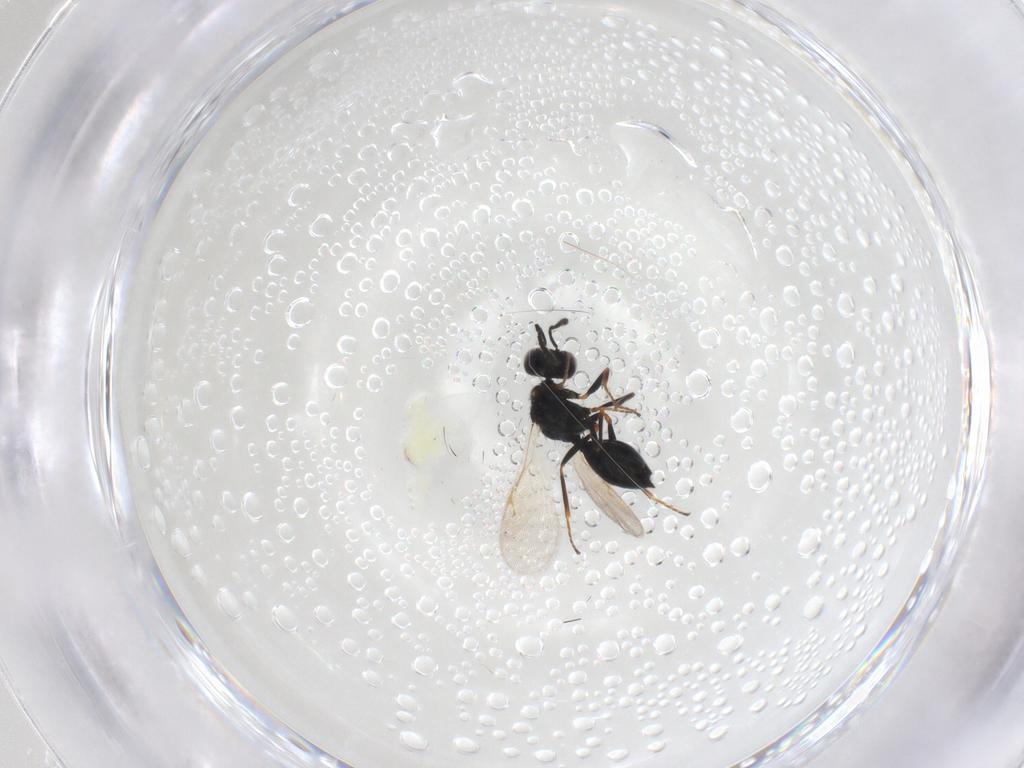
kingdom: Animalia
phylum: Arthropoda
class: Insecta
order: Hymenoptera
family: Chalcidoidea_incertae_sedis
